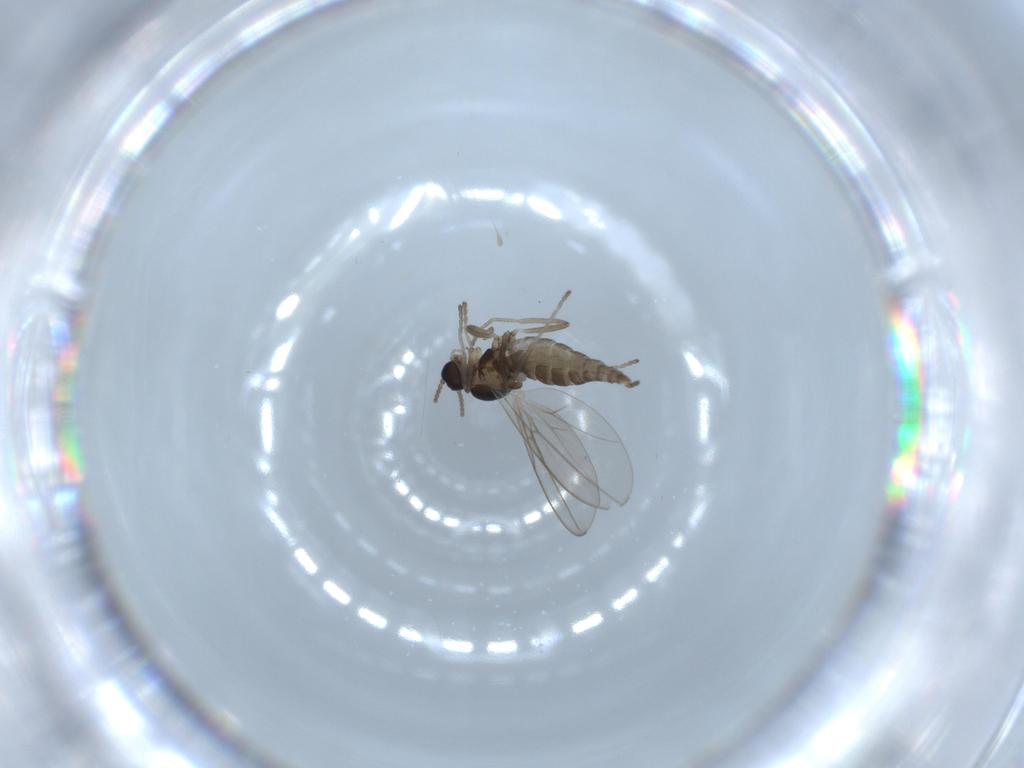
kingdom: Animalia
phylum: Arthropoda
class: Insecta
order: Diptera
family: Cecidomyiidae
